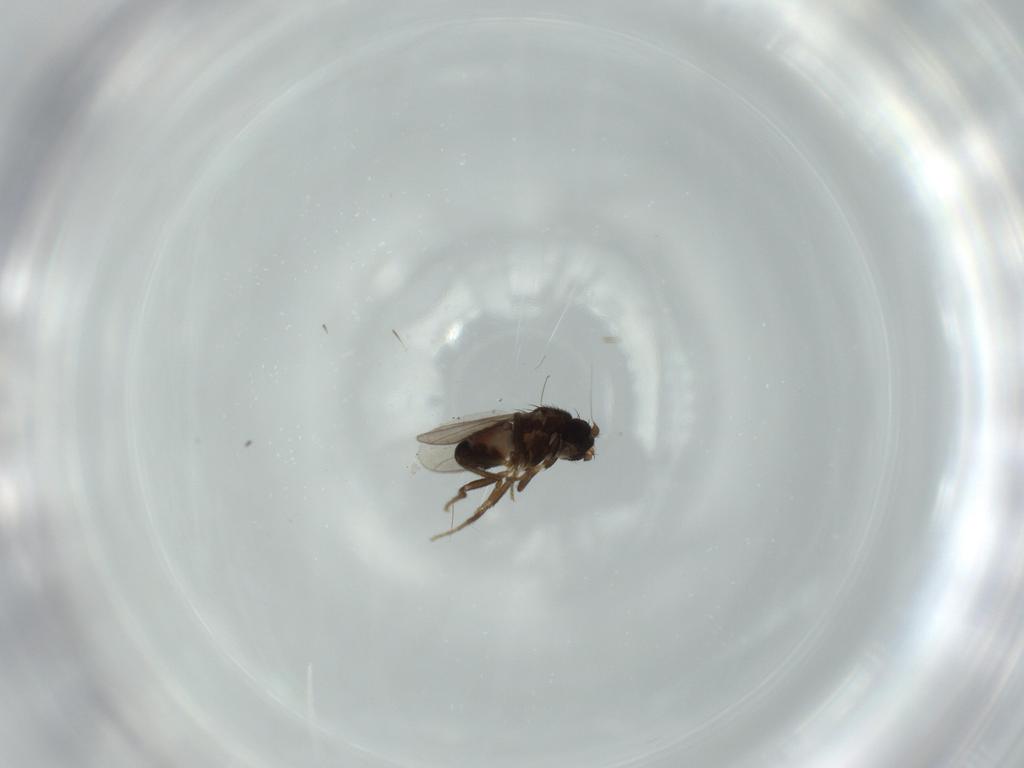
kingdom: Animalia
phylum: Arthropoda
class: Insecta
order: Diptera
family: Sphaeroceridae
